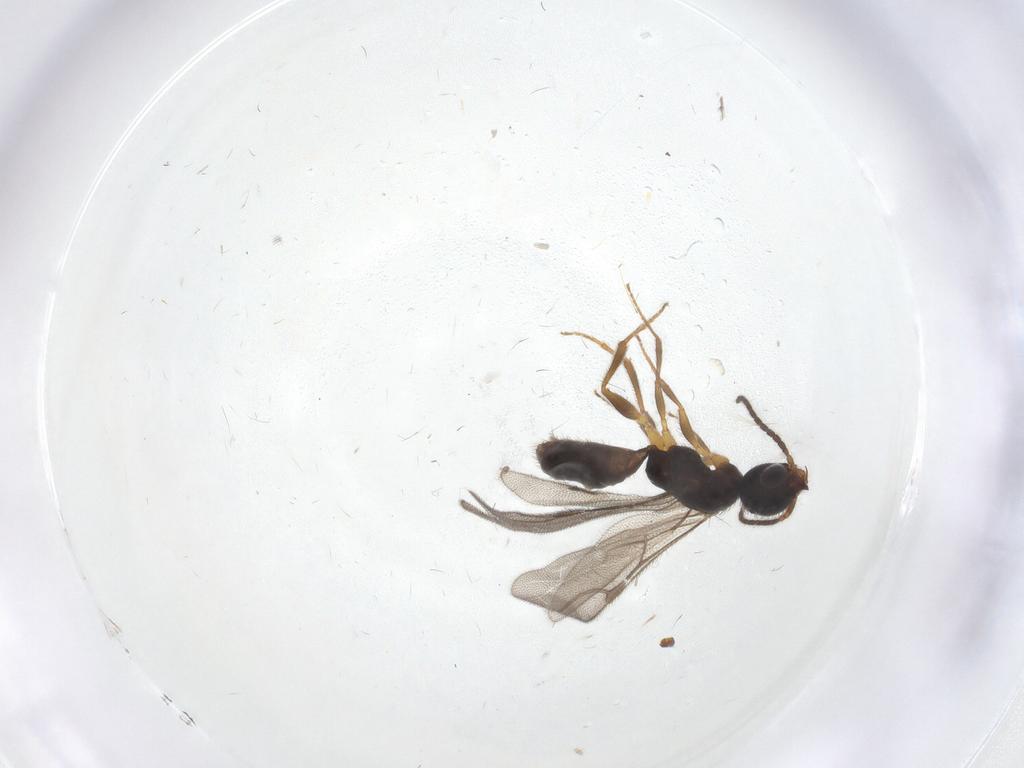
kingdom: Animalia
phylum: Arthropoda
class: Insecta
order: Hymenoptera
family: Bethylidae
